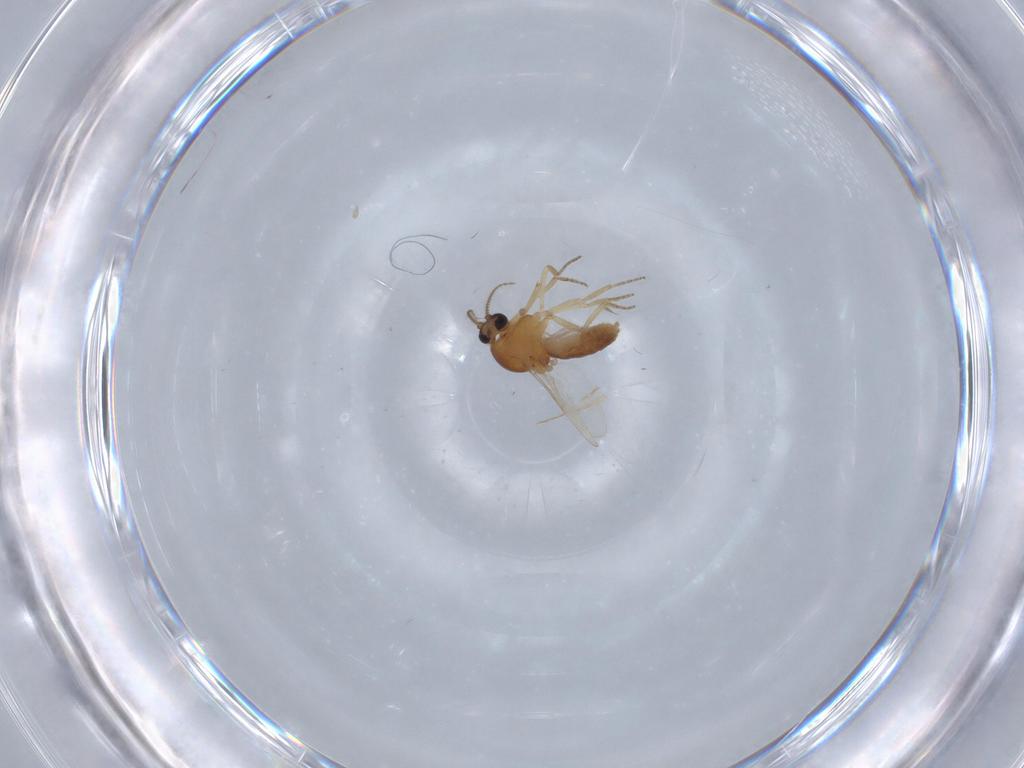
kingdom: Animalia
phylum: Arthropoda
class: Insecta
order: Diptera
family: Ceratopogonidae
